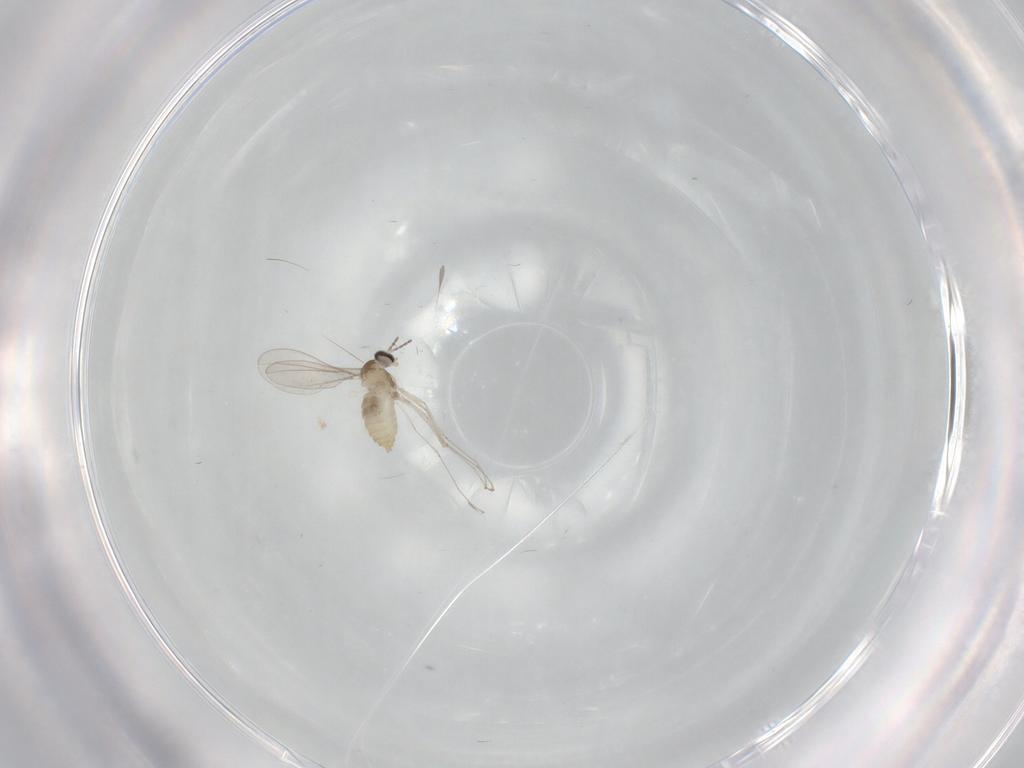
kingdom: Animalia
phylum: Arthropoda
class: Insecta
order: Diptera
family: Cecidomyiidae
